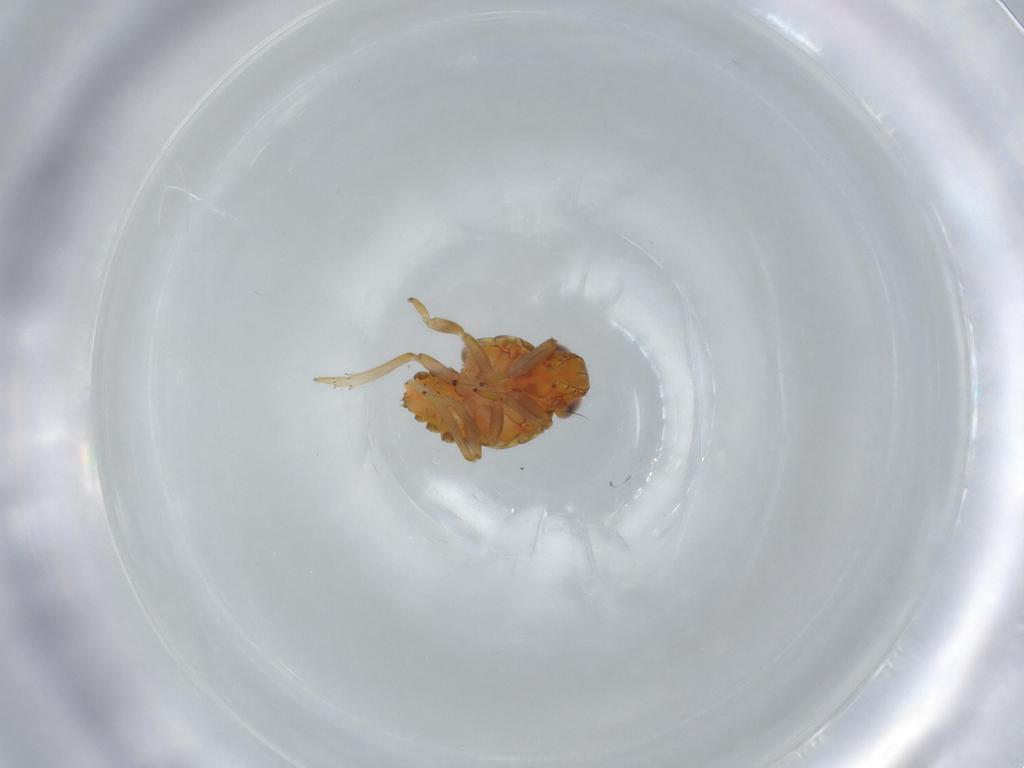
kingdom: Animalia
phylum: Arthropoda
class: Insecta
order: Hemiptera
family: Issidae
